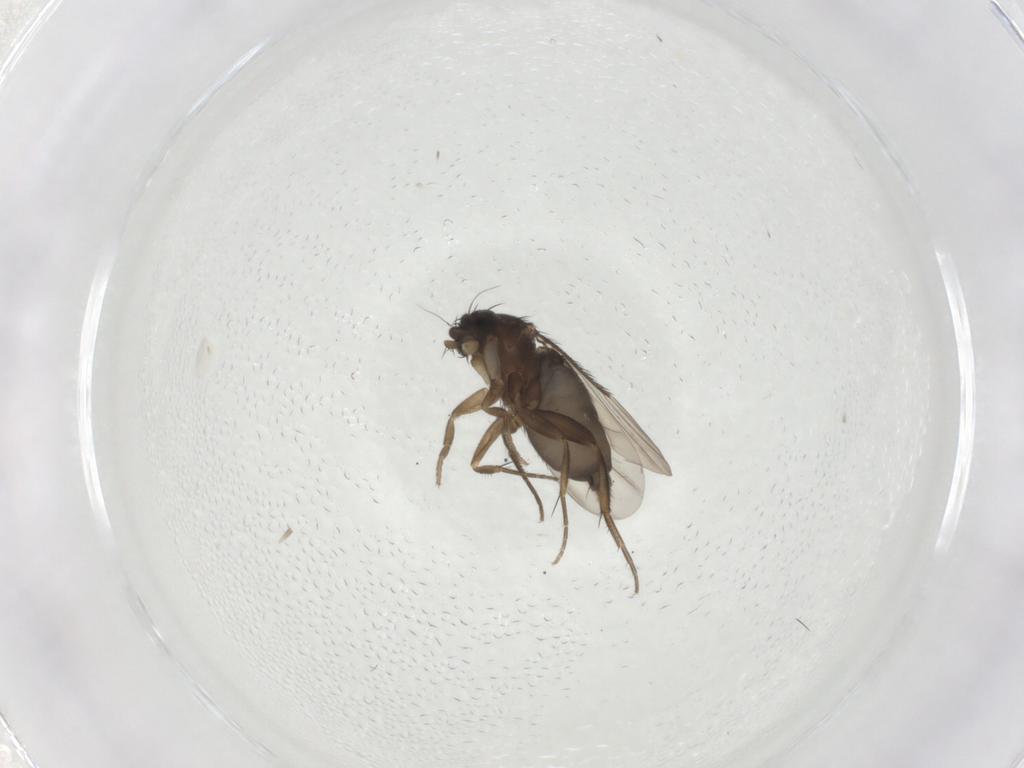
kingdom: Animalia
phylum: Arthropoda
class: Insecta
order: Diptera
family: Phoridae
